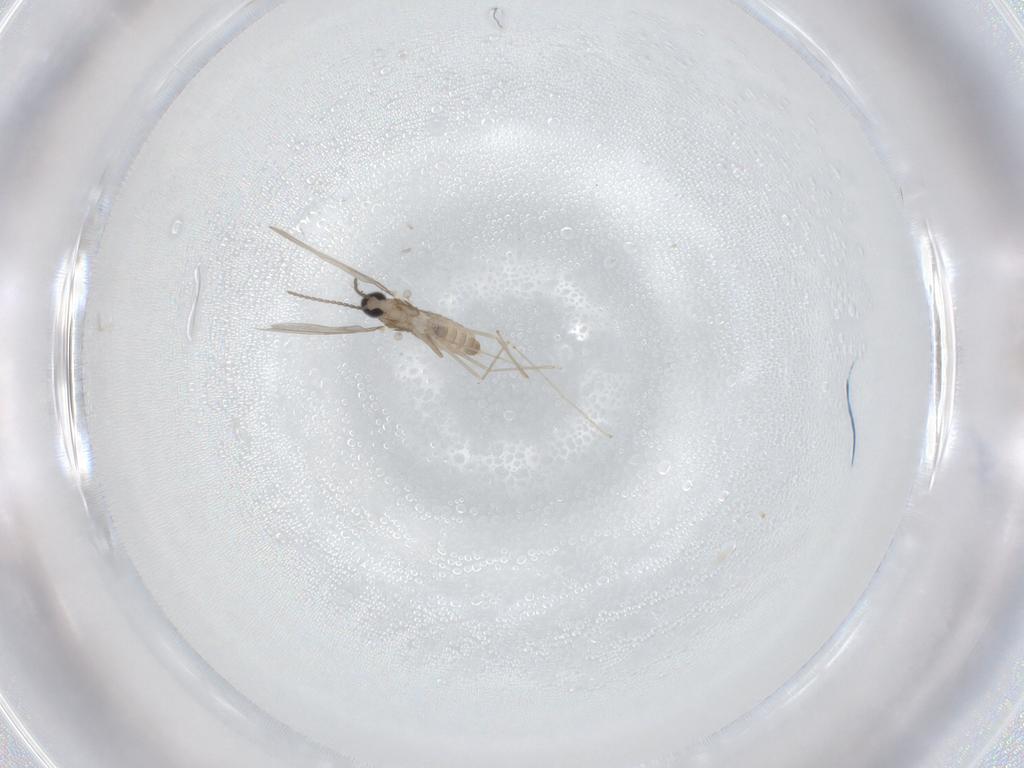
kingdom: Animalia
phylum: Arthropoda
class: Insecta
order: Diptera
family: Cecidomyiidae
